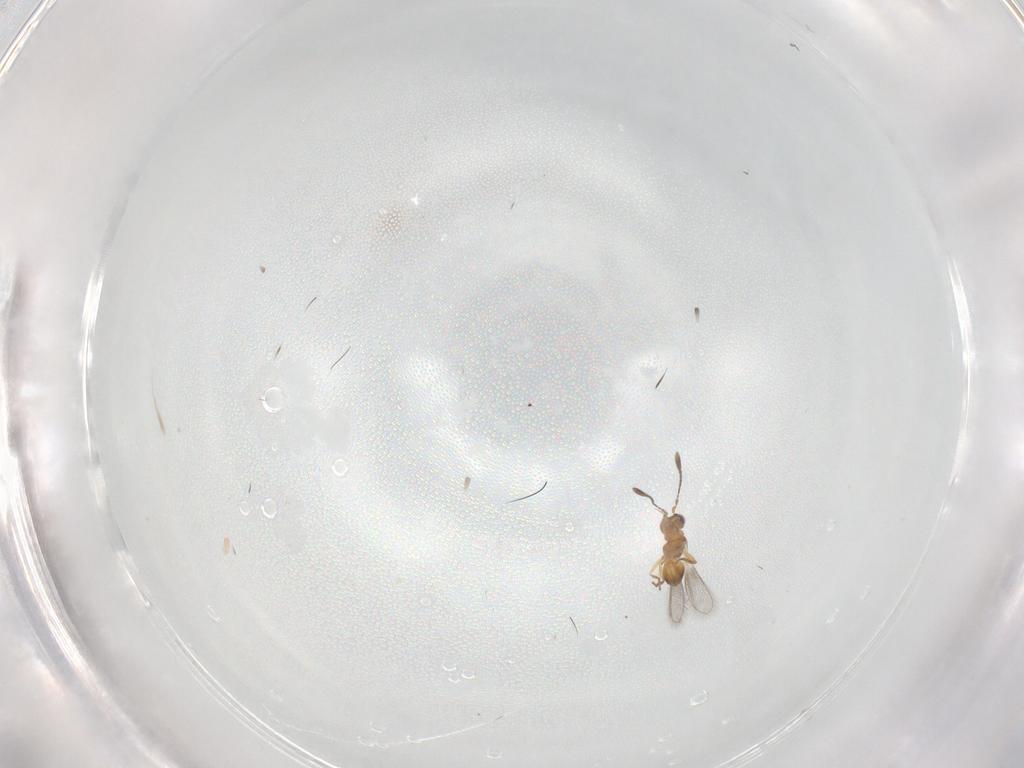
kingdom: Animalia
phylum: Arthropoda
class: Insecta
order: Hymenoptera
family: Mymaridae
